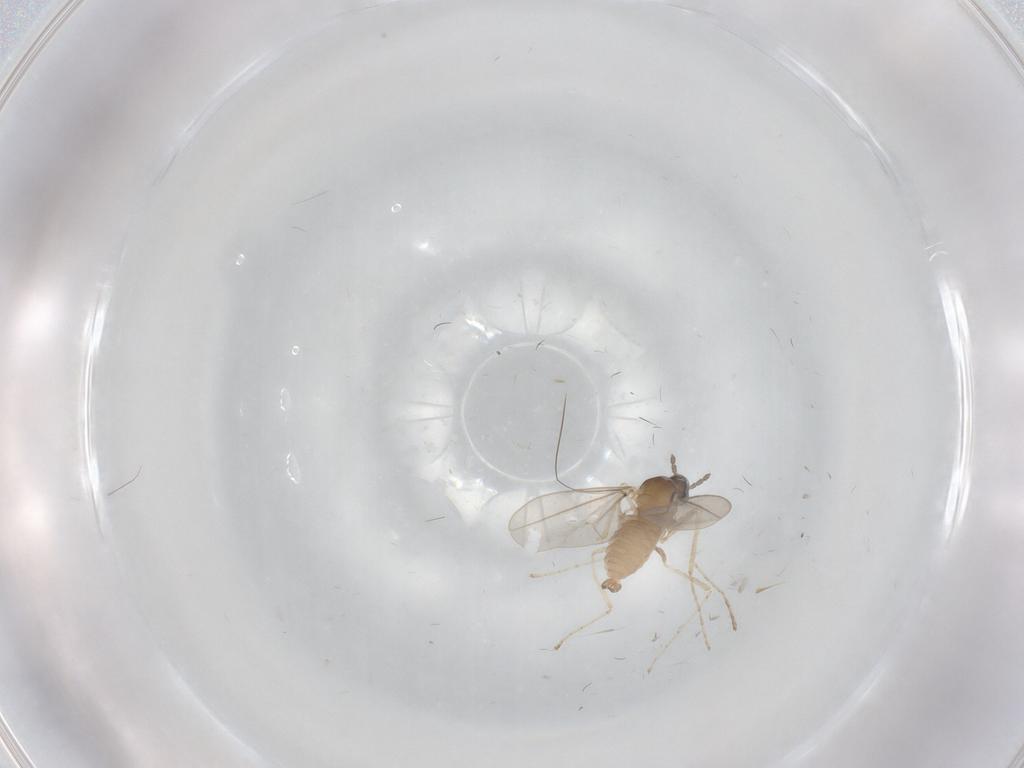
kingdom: Animalia
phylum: Arthropoda
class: Insecta
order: Diptera
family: Cecidomyiidae
